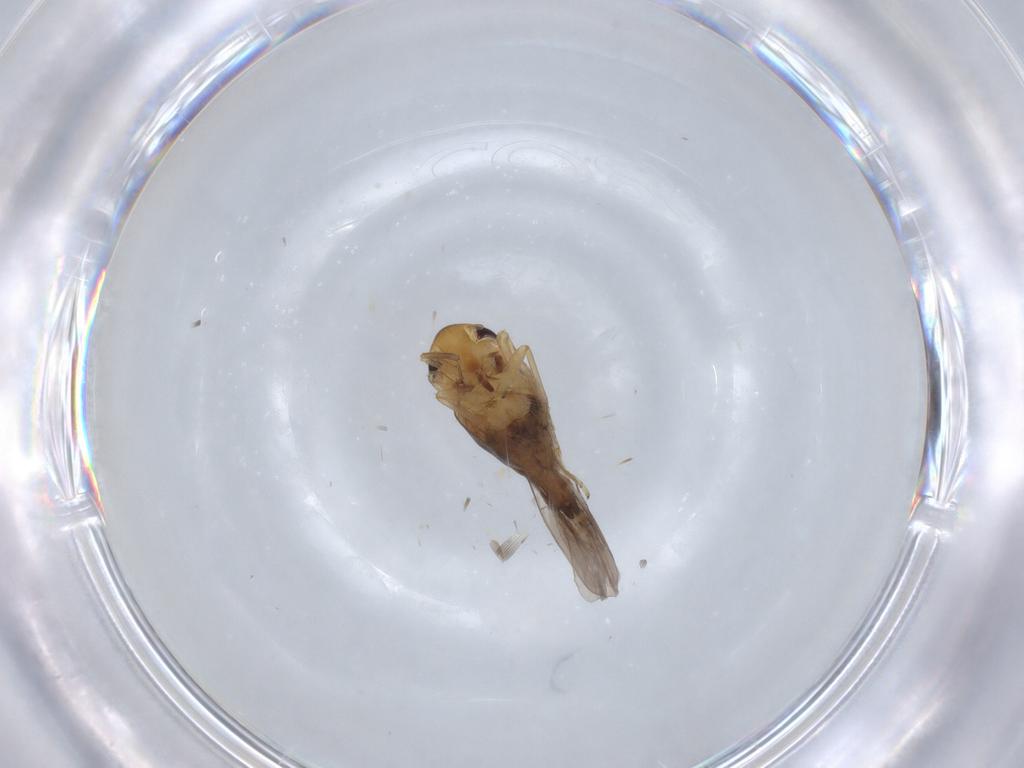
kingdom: Animalia
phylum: Arthropoda
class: Insecta
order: Hemiptera
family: Cicadellidae
